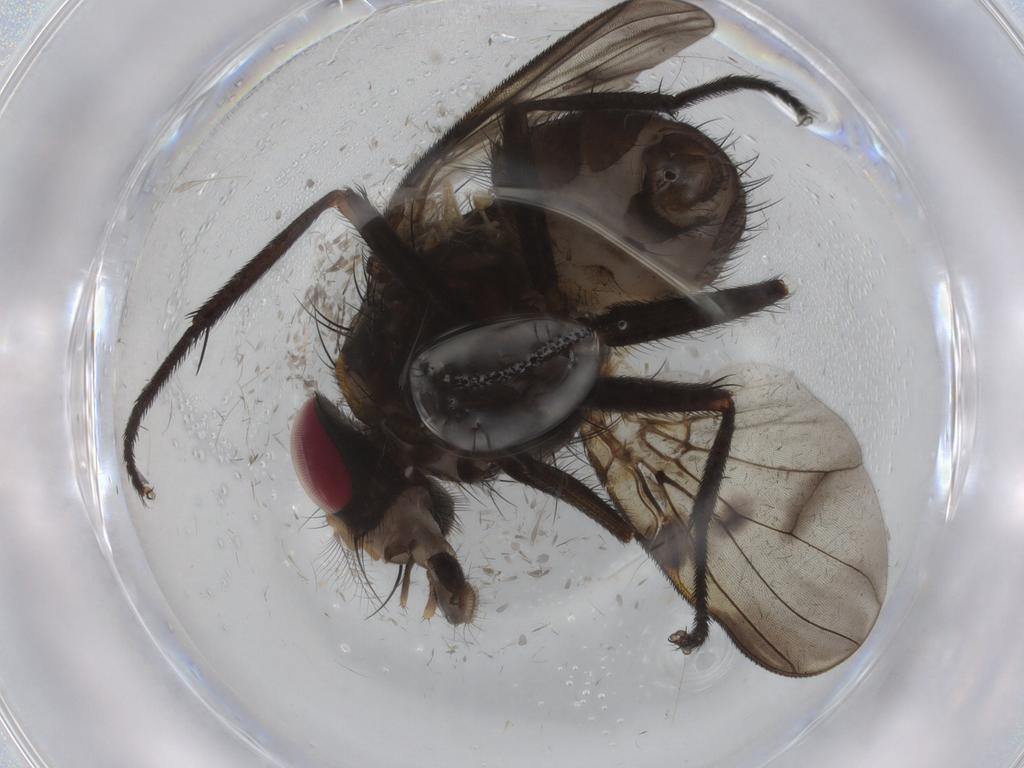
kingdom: Animalia
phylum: Arthropoda
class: Insecta
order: Diptera
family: Muscidae
